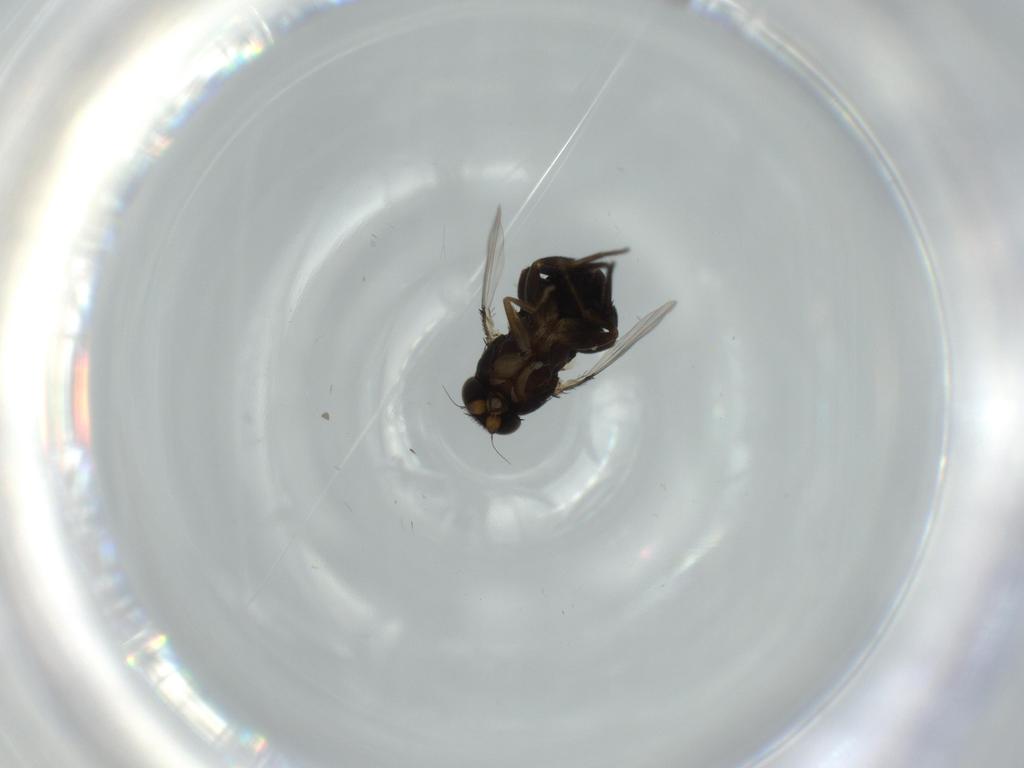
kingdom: Animalia
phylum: Arthropoda
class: Insecta
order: Diptera
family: Phoridae
